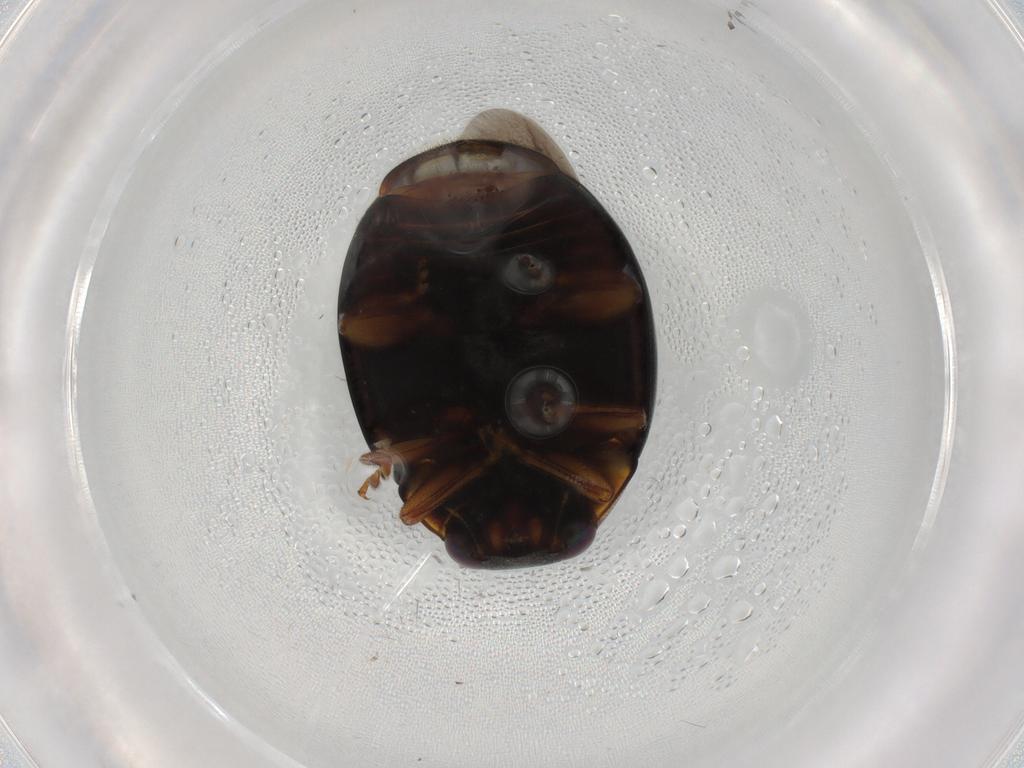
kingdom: Animalia
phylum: Arthropoda
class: Insecta
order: Coleoptera
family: Coccinellidae
